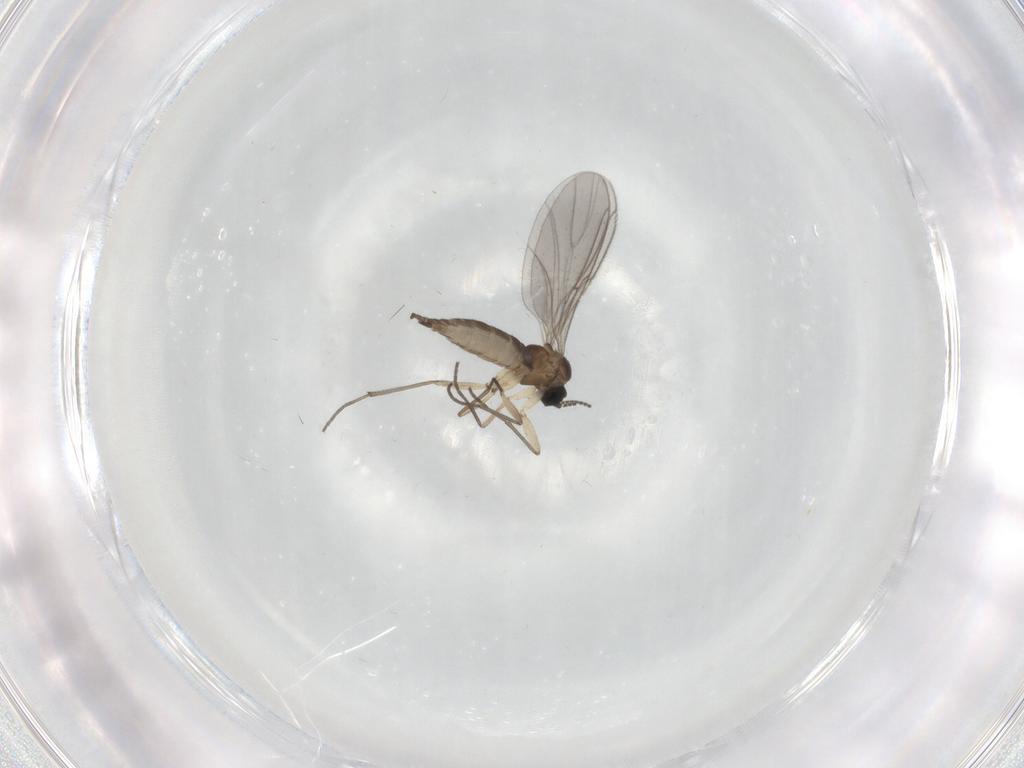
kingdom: Animalia
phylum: Arthropoda
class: Insecta
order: Diptera
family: Sciaridae
